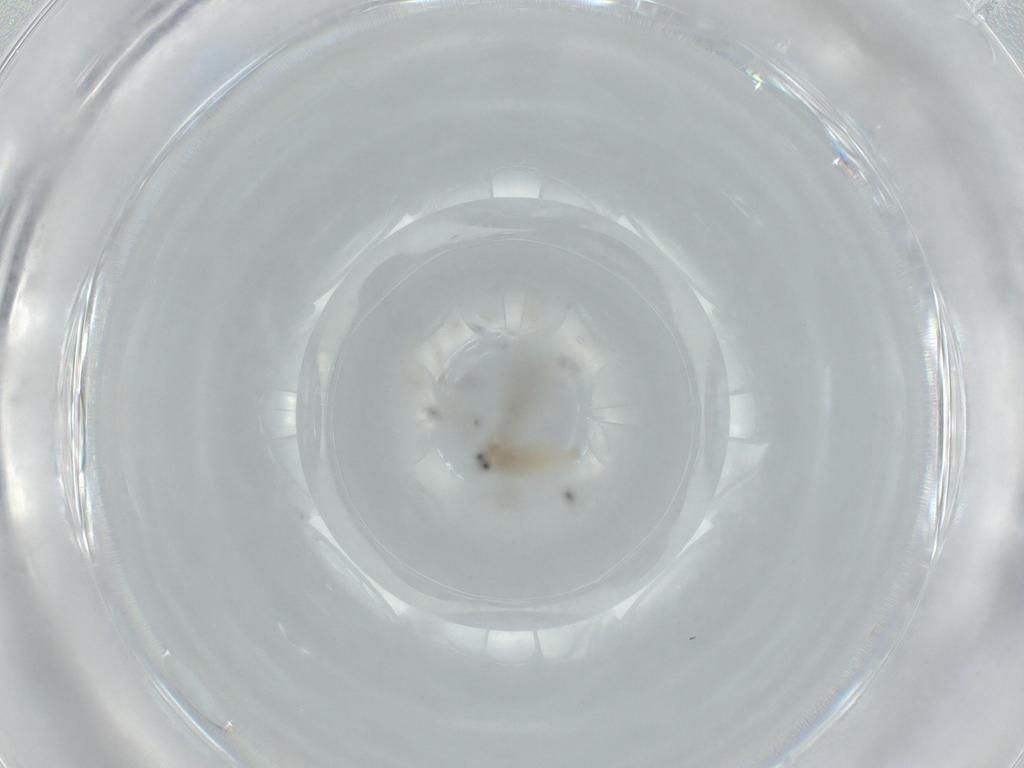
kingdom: Animalia
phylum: Arthropoda
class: Insecta
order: Diptera
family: Cecidomyiidae
